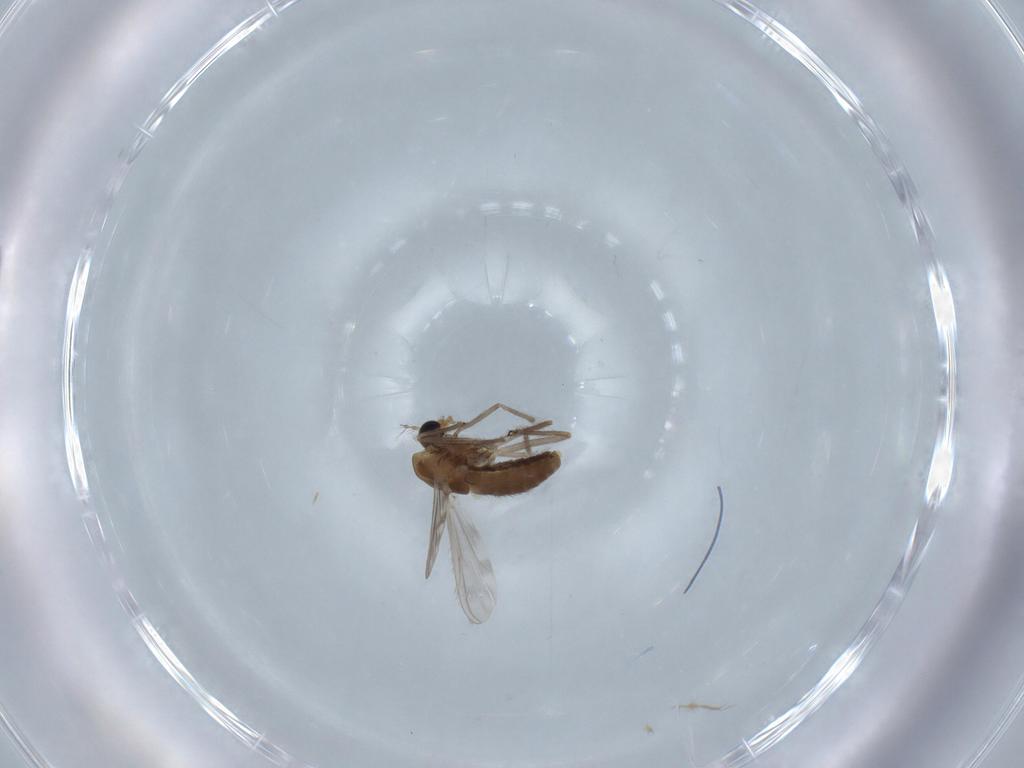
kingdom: Animalia
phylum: Arthropoda
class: Insecta
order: Diptera
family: Chironomidae
